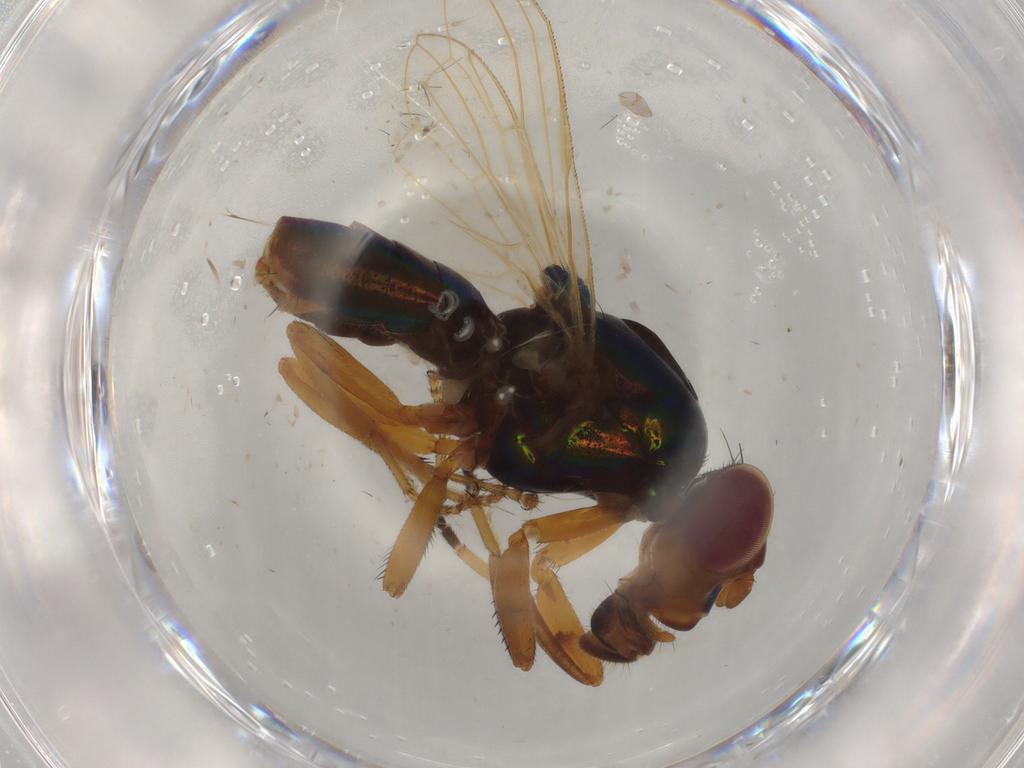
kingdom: Animalia
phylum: Arthropoda
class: Insecta
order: Diptera
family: Ulidiidae
